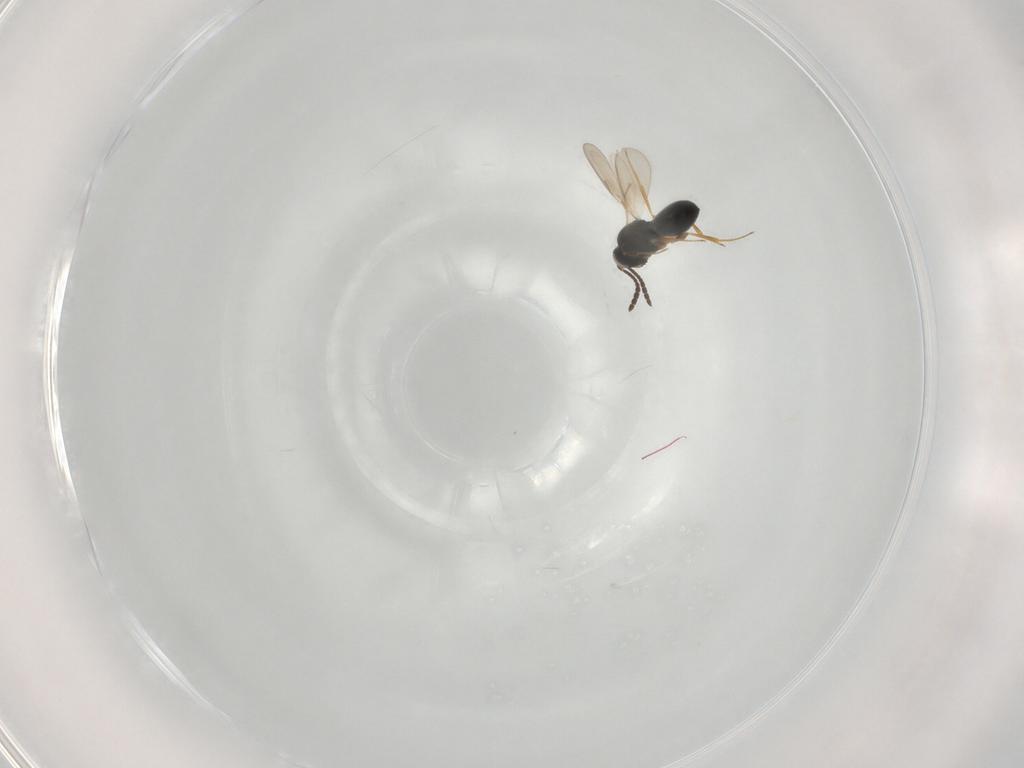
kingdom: Animalia
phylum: Arthropoda
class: Insecta
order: Hymenoptera
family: Scelionidae
